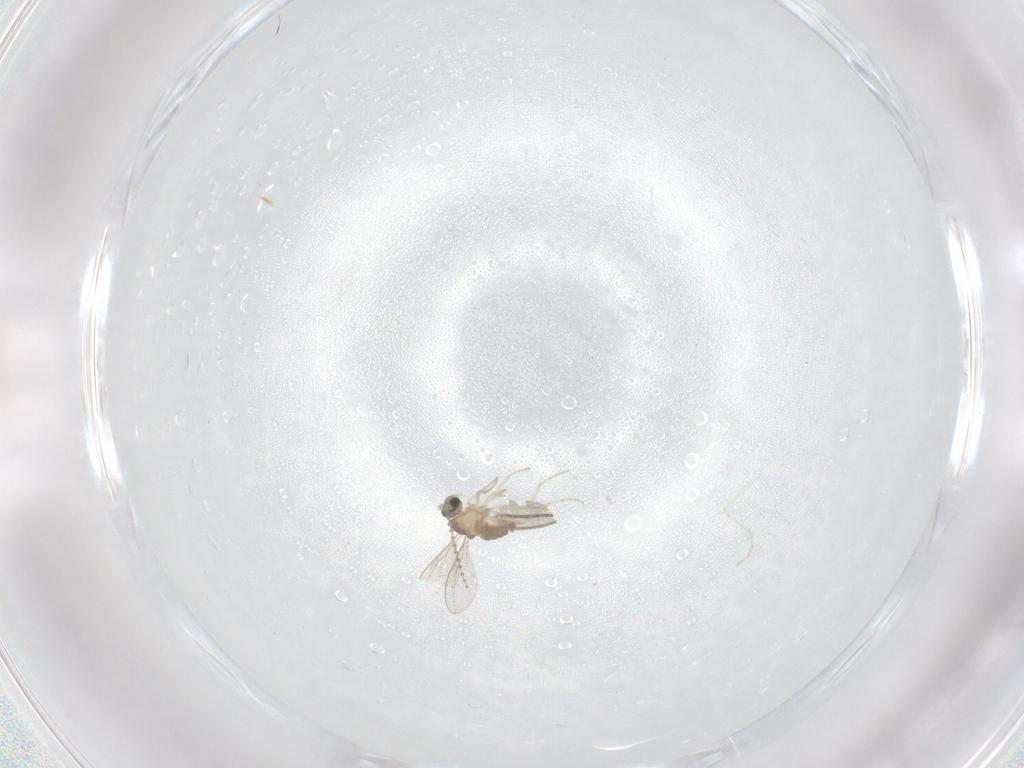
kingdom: Animalia
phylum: Arthropoda
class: Insecta
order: Diptera
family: Cecidomyiidae
